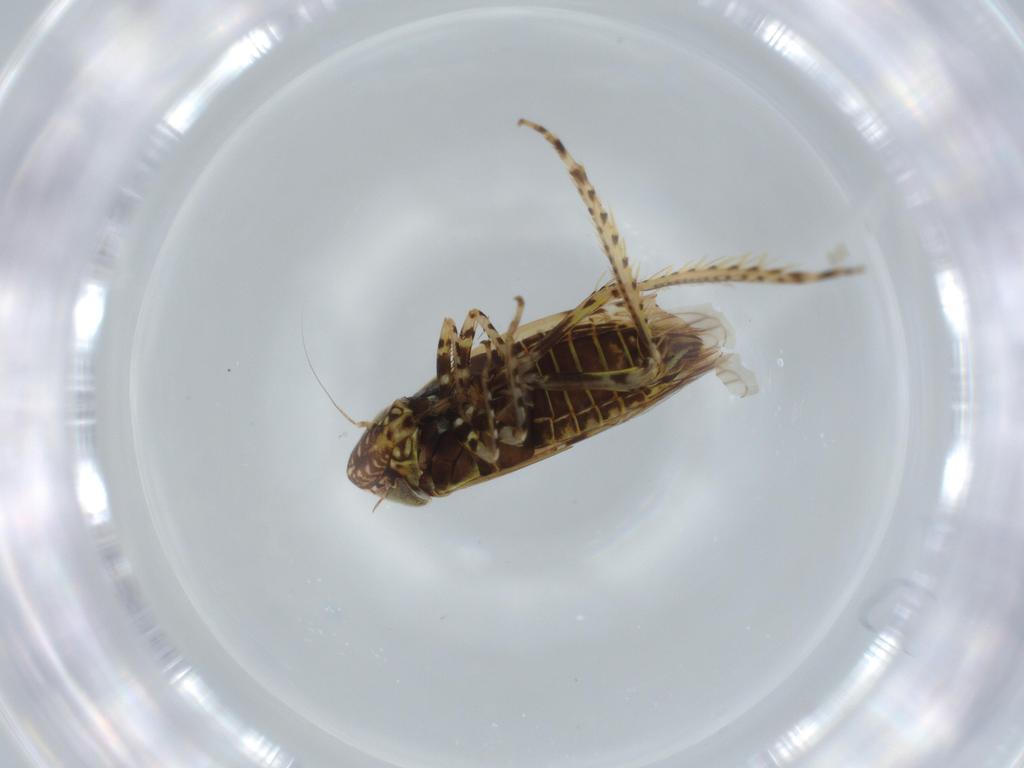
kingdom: Animalia
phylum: Arthropoda
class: Insecta
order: Hemiptera
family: Cicadellidae
